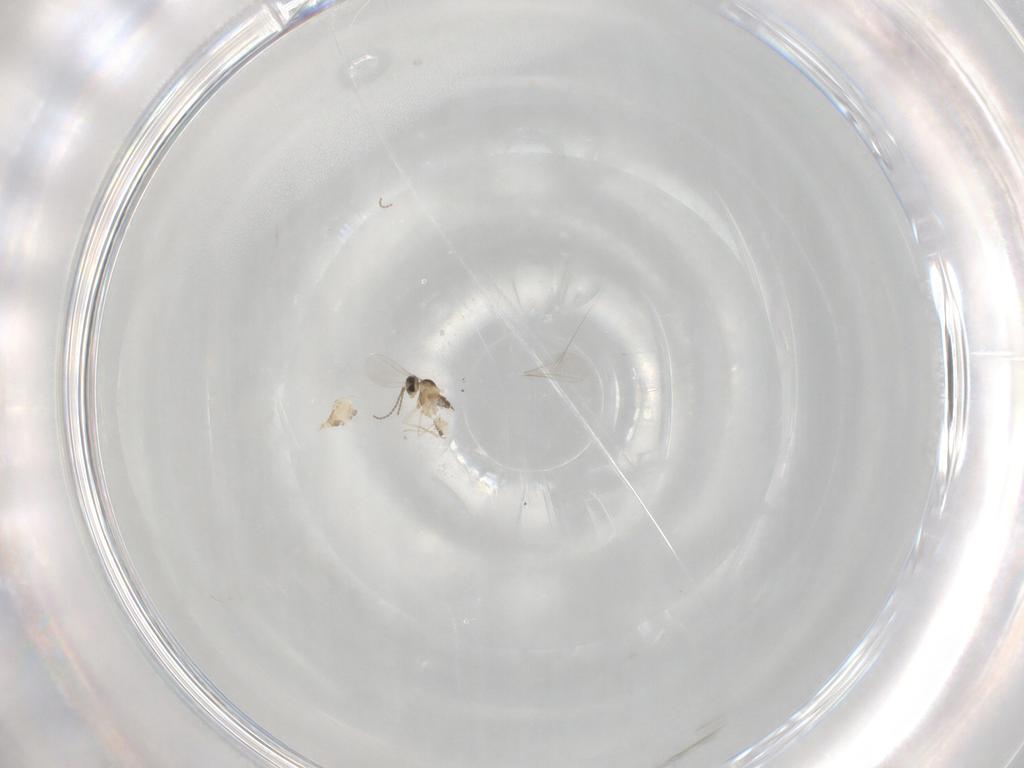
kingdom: Animalia
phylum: Arthropoda
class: Insecta
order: Diptera
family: Cecidomyiidae
